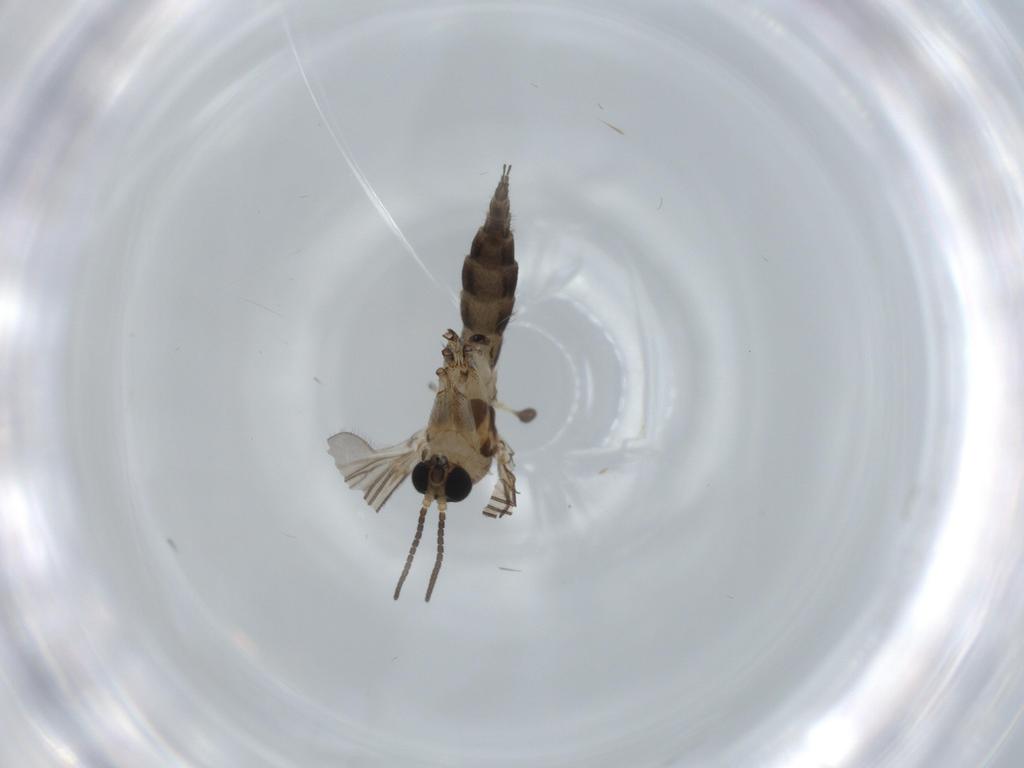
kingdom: Animalia
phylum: Arthropoda
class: Insecta
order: Diptera
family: Sciaridae
